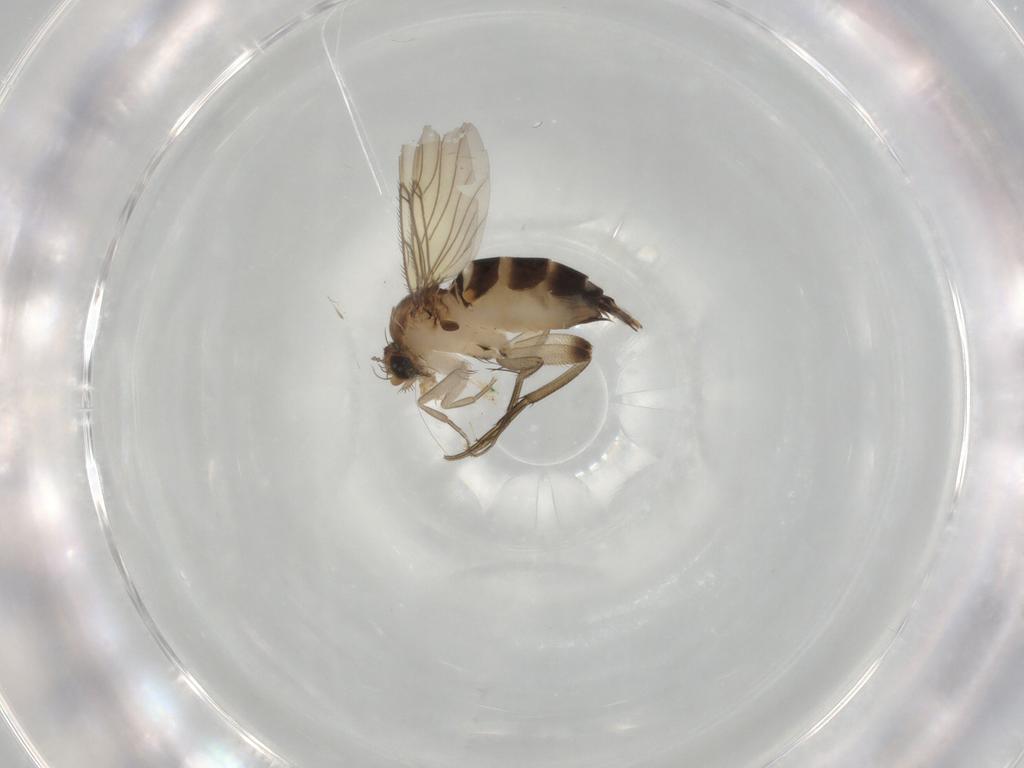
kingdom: Animalia
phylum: Arthropoda
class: Insecta
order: Diptera
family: Phoridae
